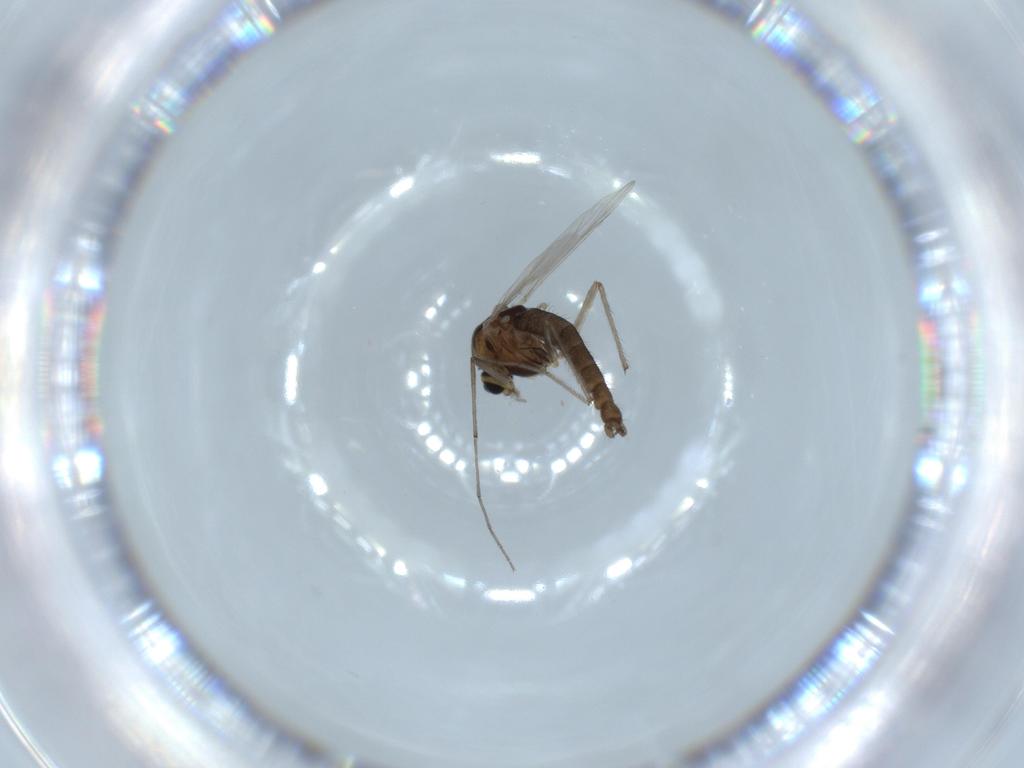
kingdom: Animalia
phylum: Arthropoda
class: Insecta
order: Diptera
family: Chironomidae
